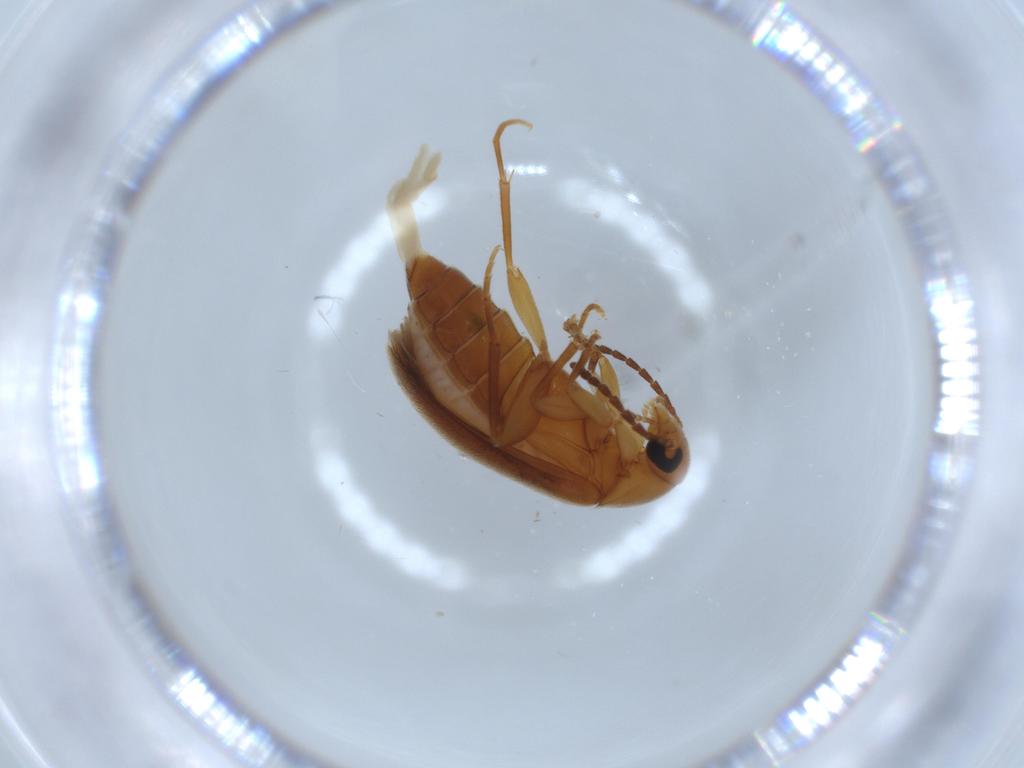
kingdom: Animalia
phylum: Arthropoda
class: Insecta
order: Coleoptera
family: Scraptiidae
